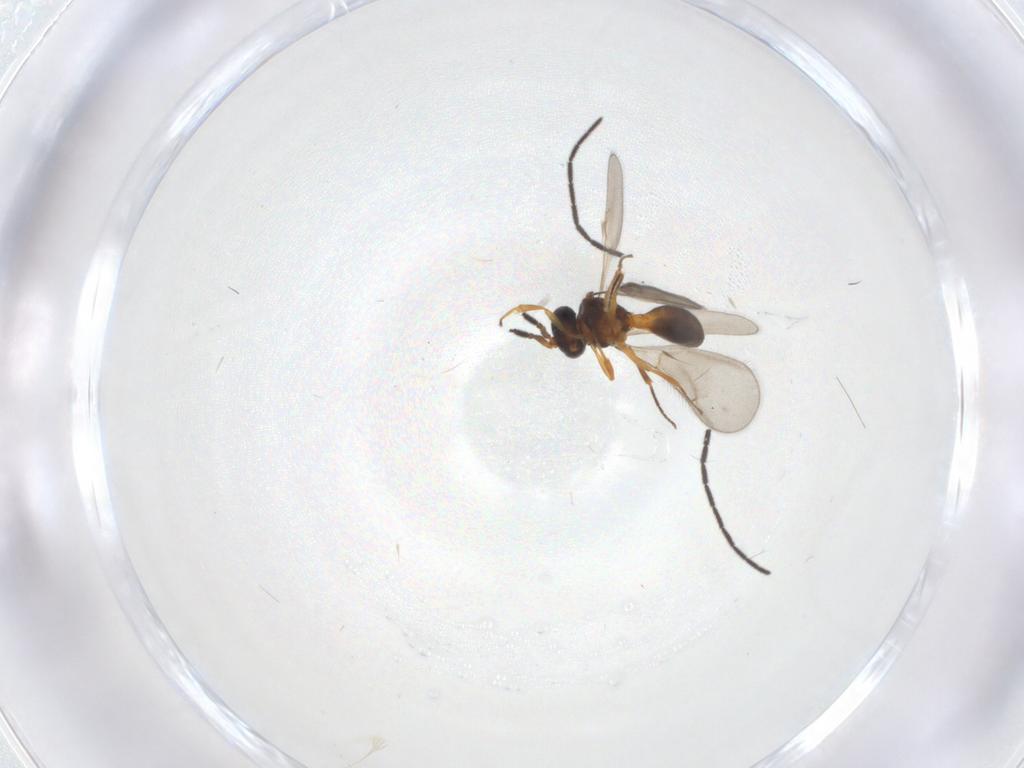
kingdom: Animalia
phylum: Arthropoda
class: Insecta
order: Hymenoptera
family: Scelionidae
